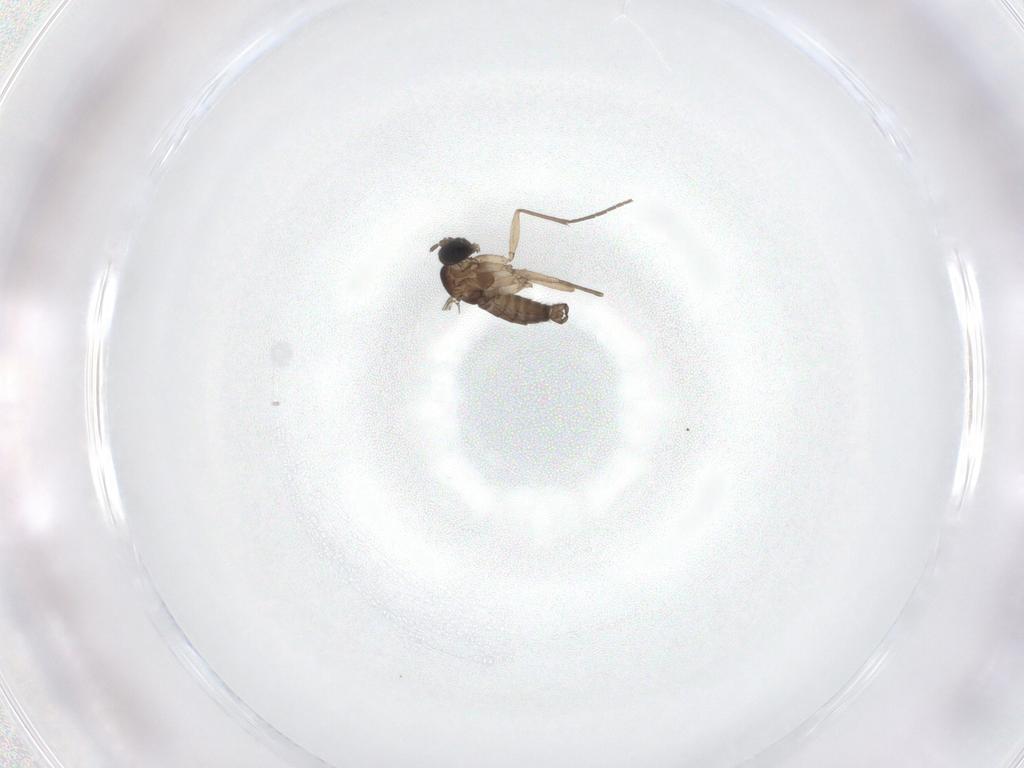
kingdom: Animalia
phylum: Arthropoda
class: Insecta
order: Diptera
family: Sciaridae
